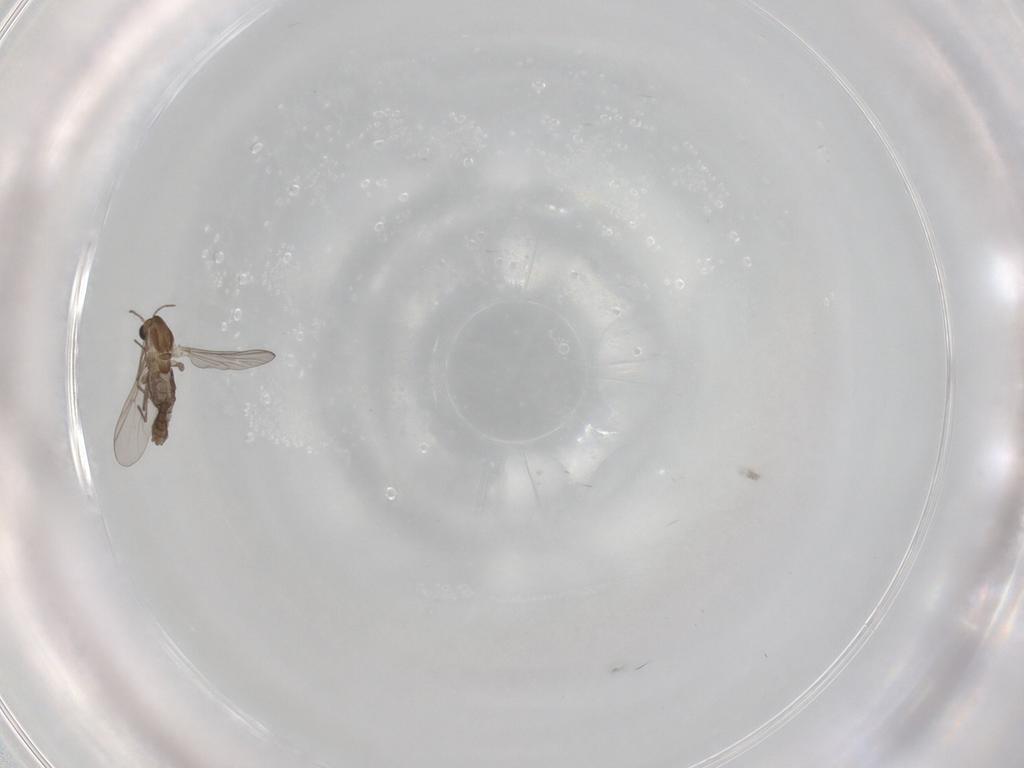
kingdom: Animalia
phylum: Arthropoda
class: Insecta
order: Diptera
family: Chironomidae
